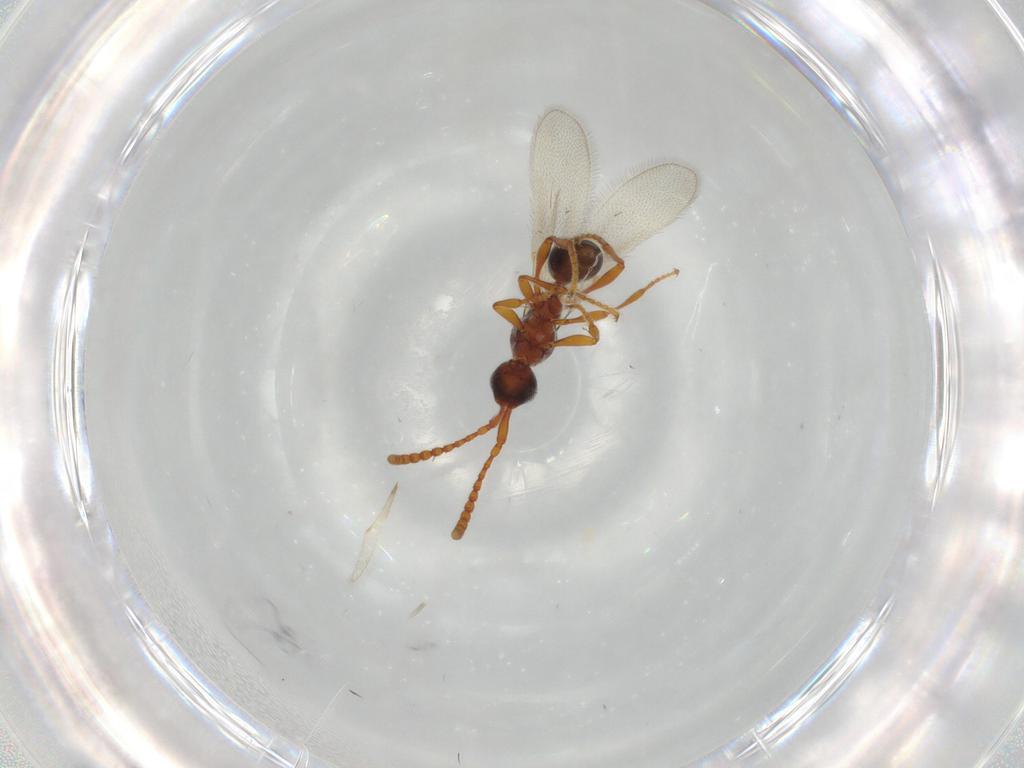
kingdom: Animalia
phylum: Arthropoda
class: Insecta
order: Hymenoptera
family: Diapriidae
